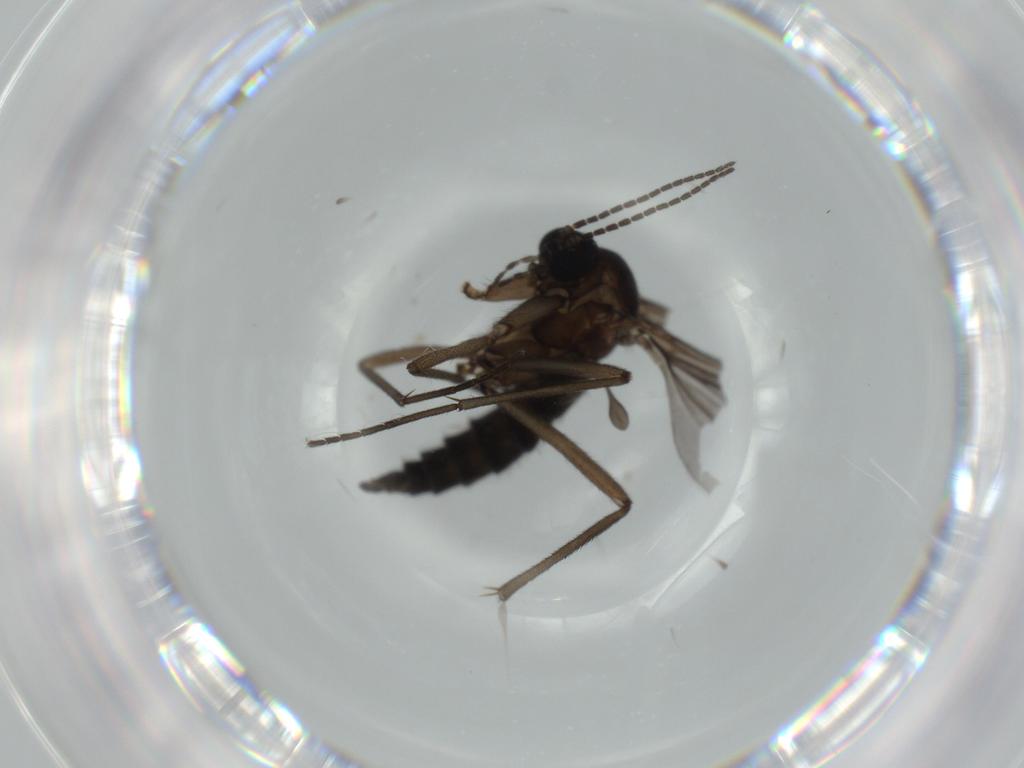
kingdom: Animalia
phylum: Arthropoda
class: Insecta
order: Diptera
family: Sciaridae
